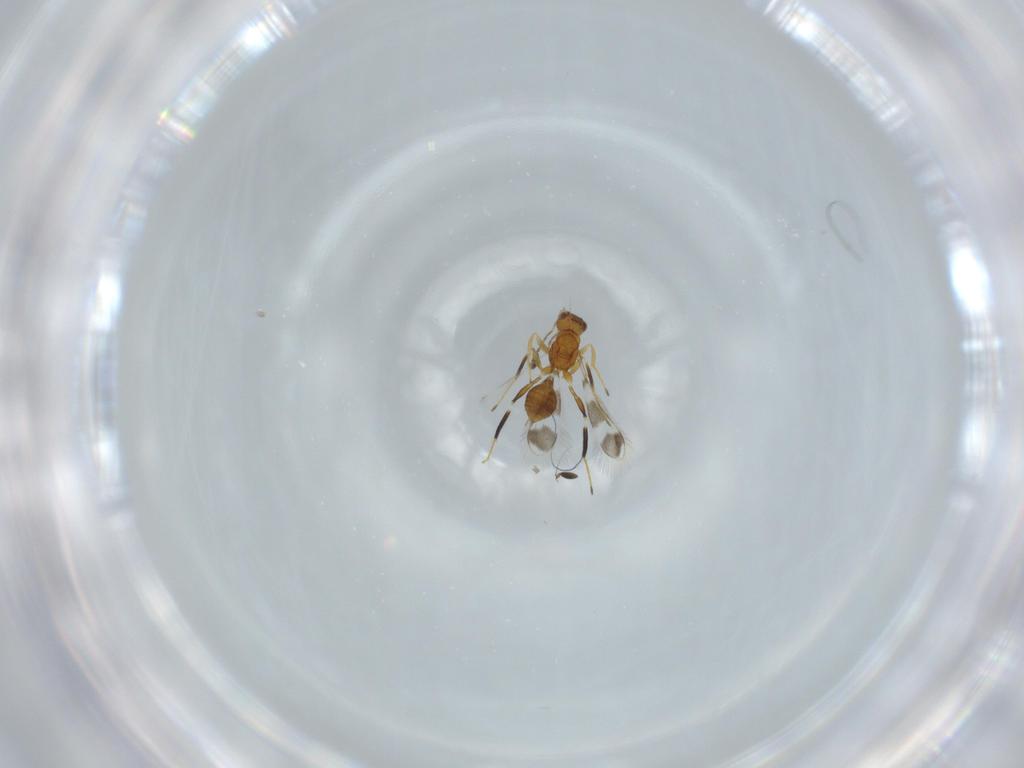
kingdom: Animalia
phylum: Arthropoda
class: Insecta
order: Hymenoptera
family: Mymaridae
